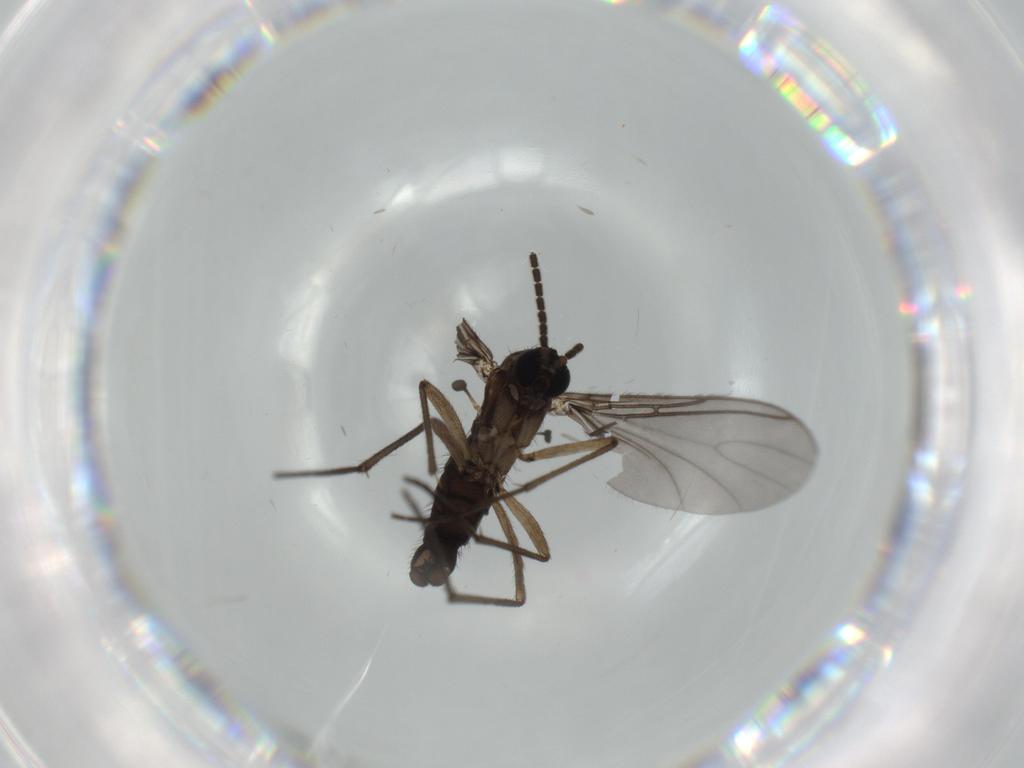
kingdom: Animalia
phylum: Arthropoda
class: Insecta
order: Diptera
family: Sciaridae
